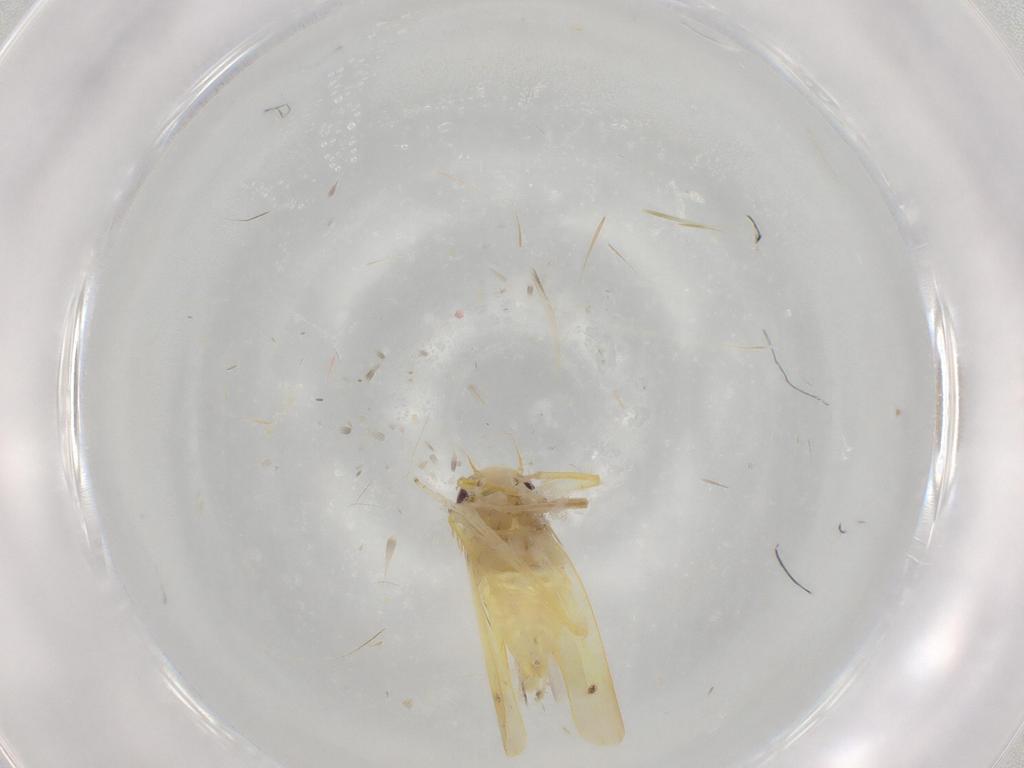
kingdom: Animalia
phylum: Arthropoda
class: Insecta
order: Hemiptera
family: Cicadellidae
